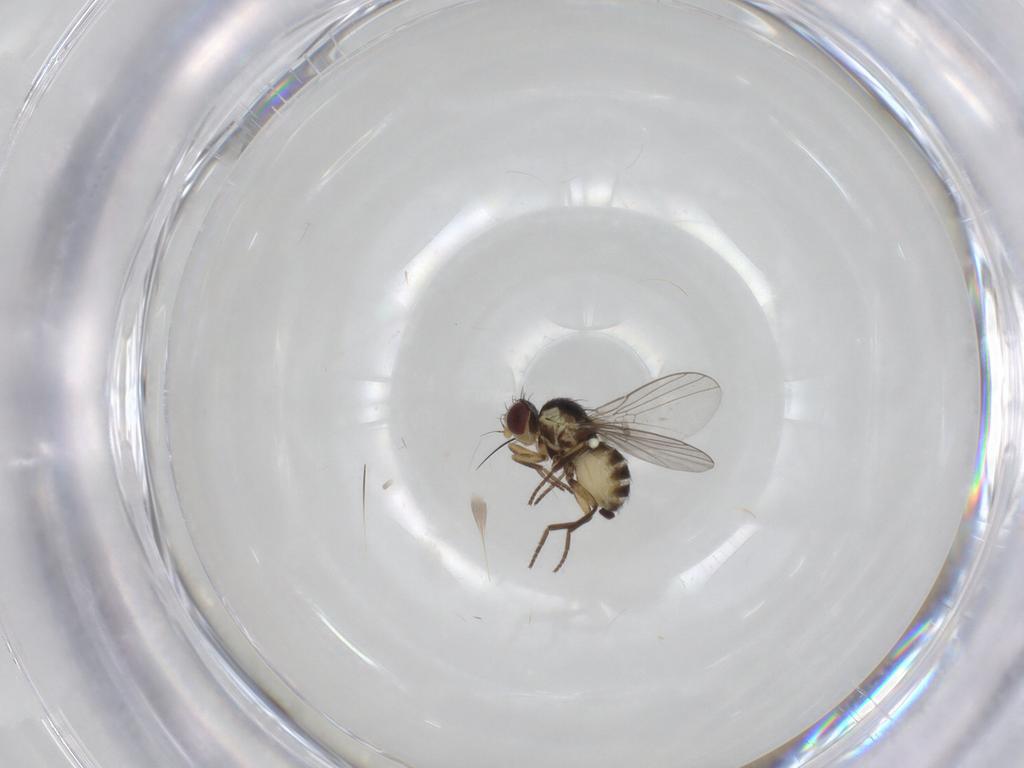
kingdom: Animalia
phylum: Arthropoda
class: Insecta
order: Diptera
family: Agromyzidae
